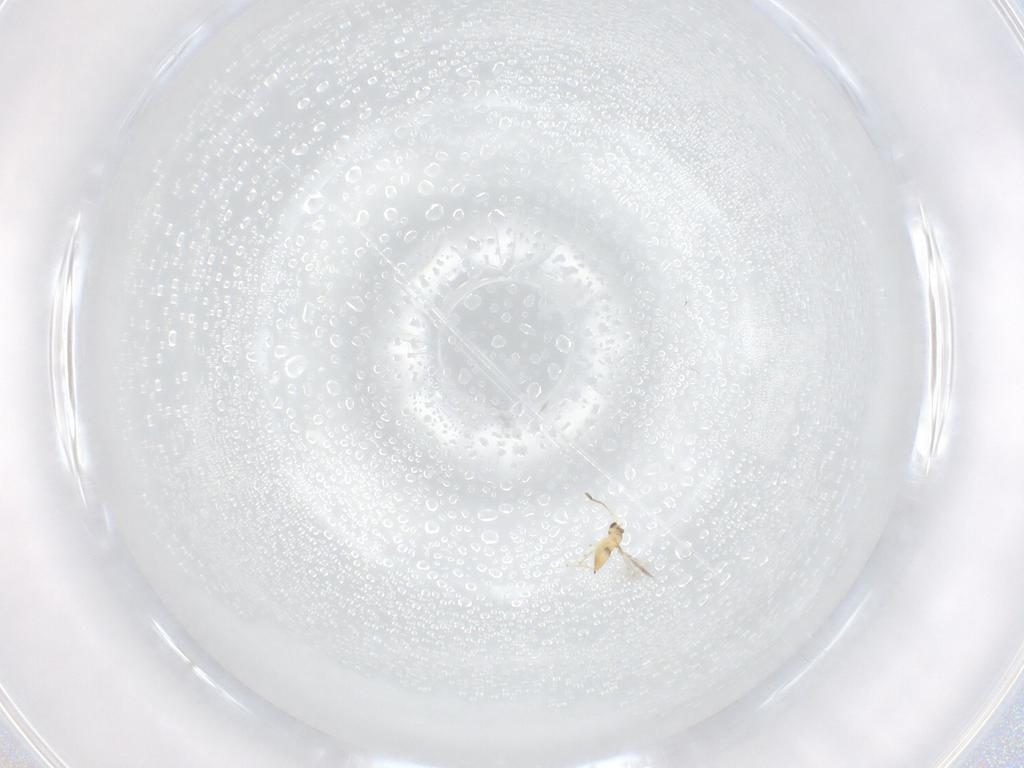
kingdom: Animalia
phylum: Arthropoda
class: Insecta
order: Hymenoptera
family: Mymaridae
